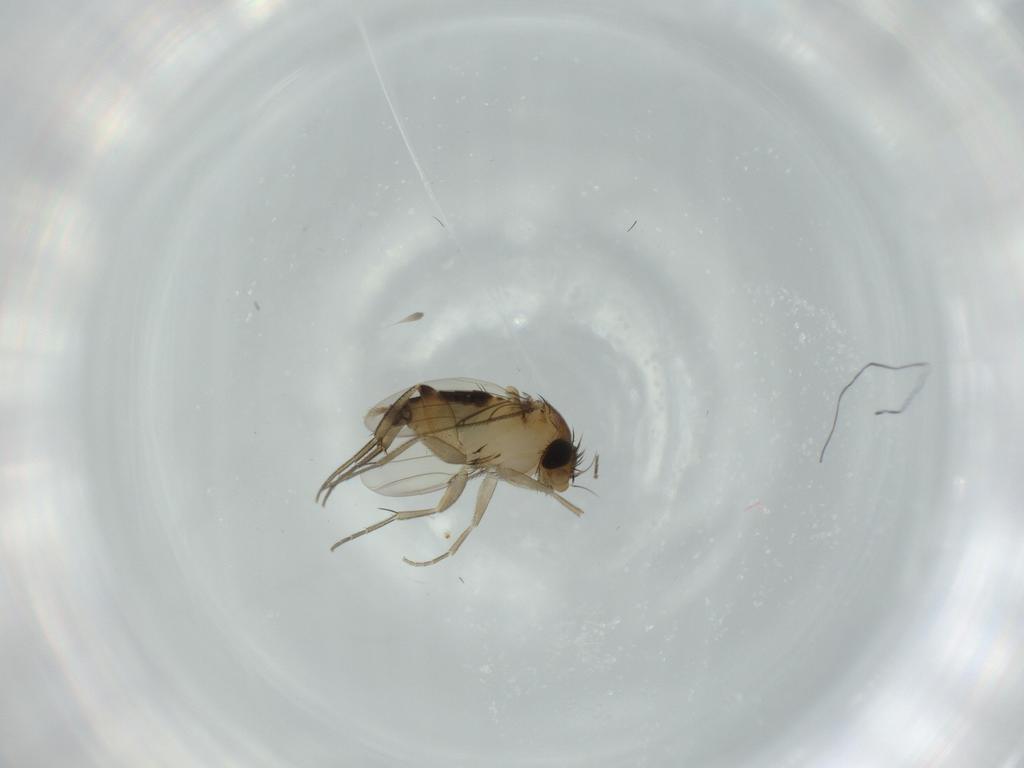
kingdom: Animalia
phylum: Arthropoda
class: Insecta
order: Diptera
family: Phoridae
